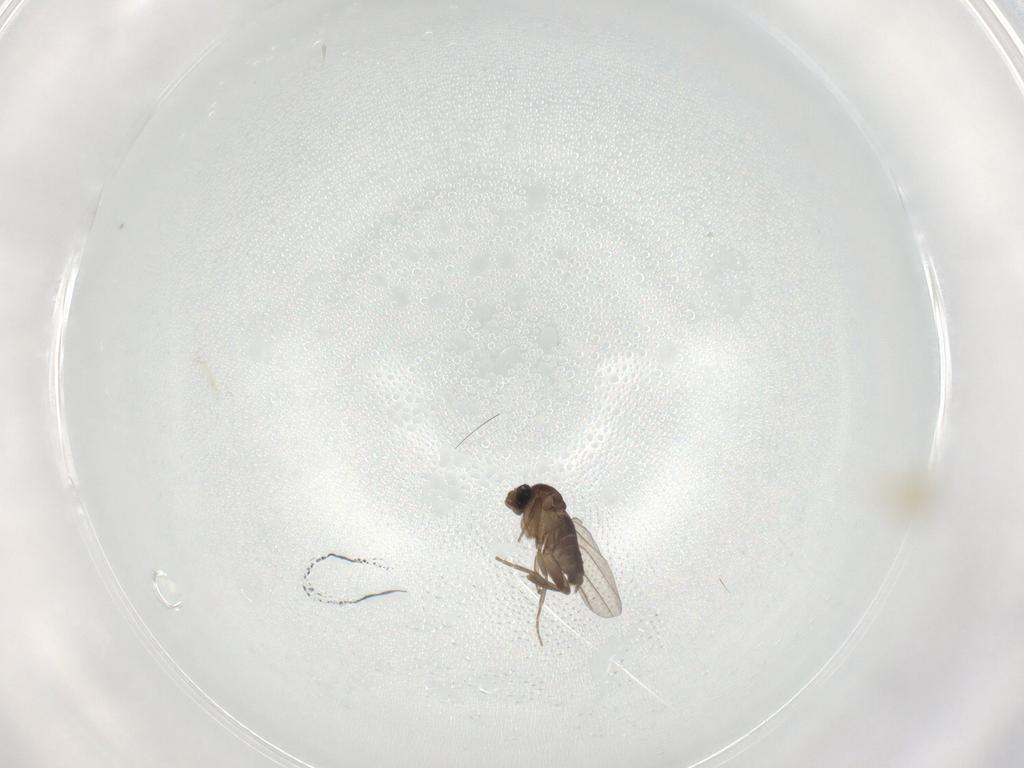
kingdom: Animalia
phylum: Arthropoda
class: Insecta
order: Diptera
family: Phoridae
